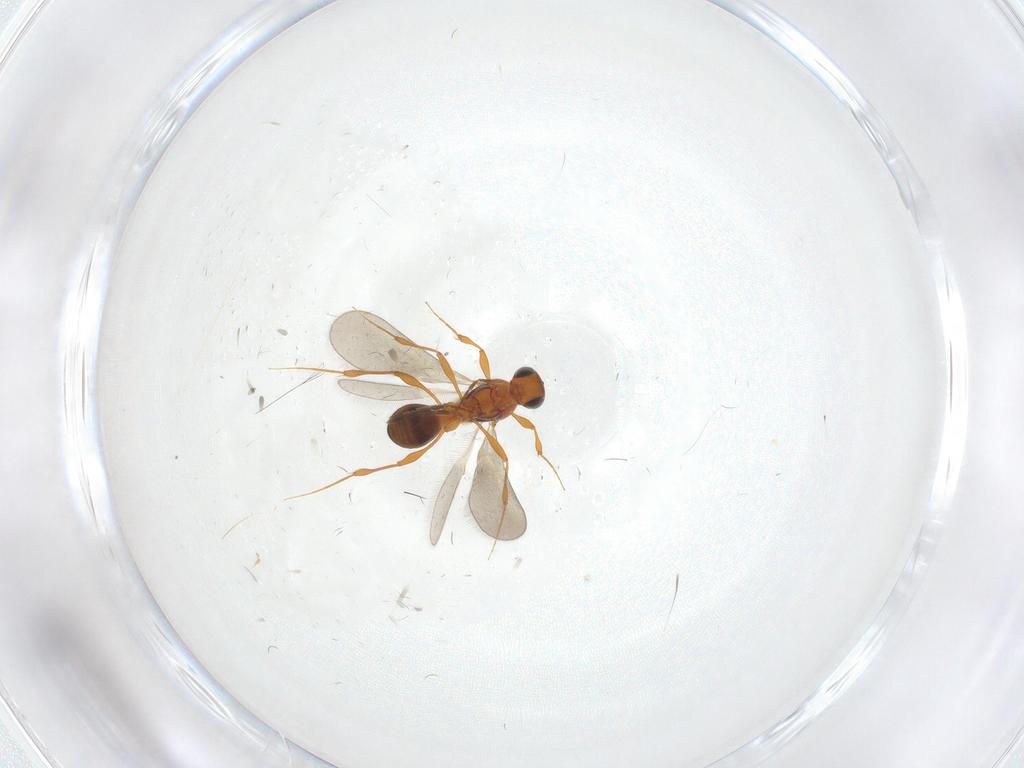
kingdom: Animalia
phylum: Arthropoda
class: Insecta
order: Hymenoptera
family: Platygastridae
